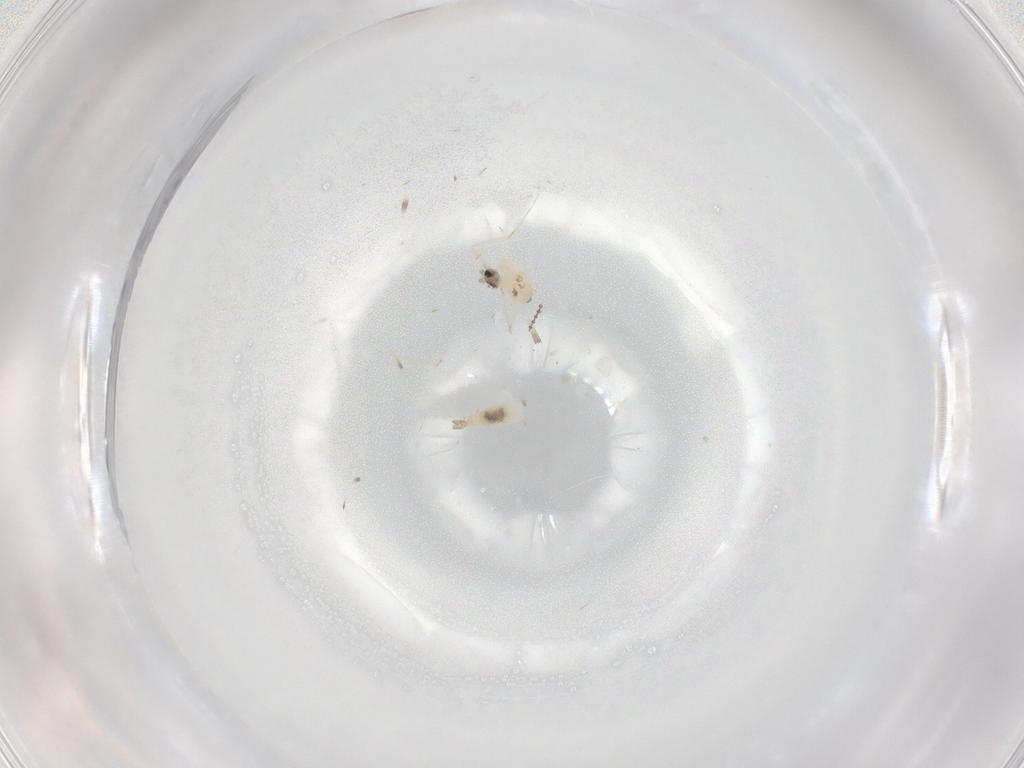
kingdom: Animalia
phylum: Arthropoda
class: Insecta
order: Diptera
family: Cecidomyiidae
